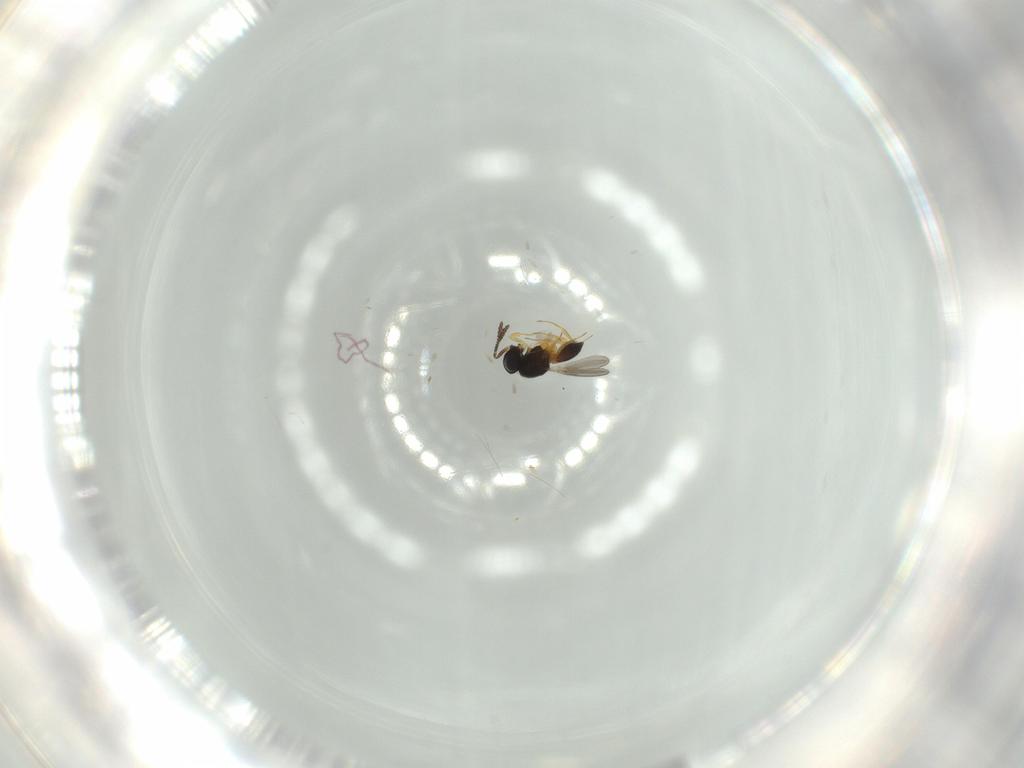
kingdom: Animalia
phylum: Arthropoda
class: Insecta
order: Hymenoptera
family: Scelionidae
